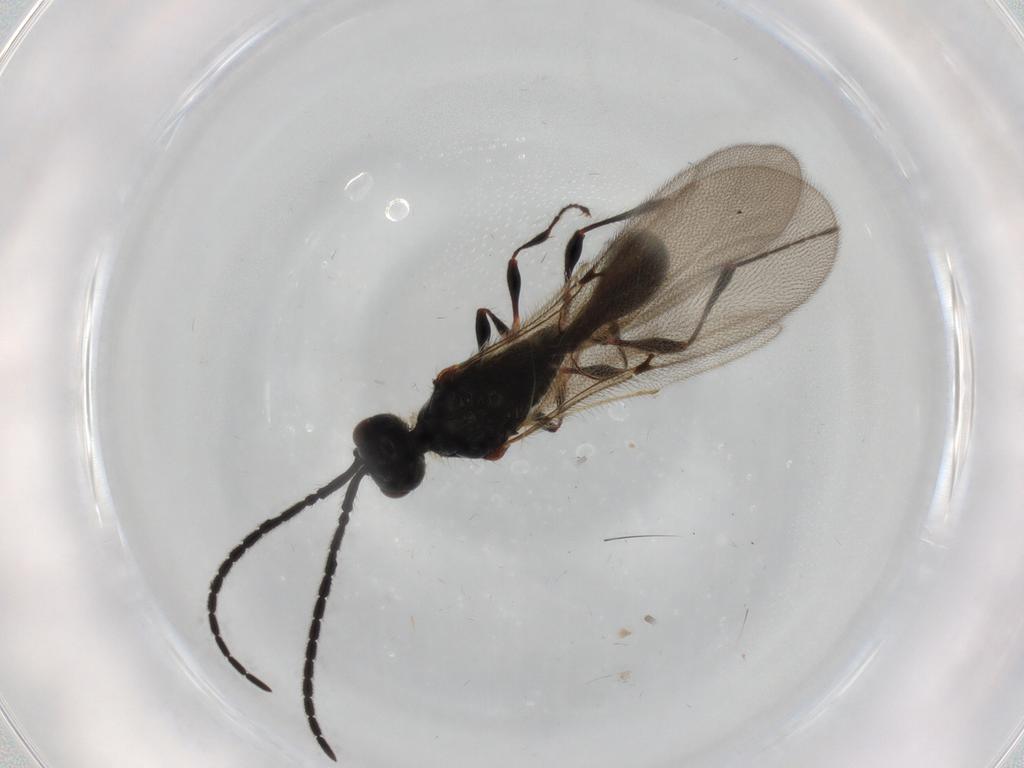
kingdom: Animalia
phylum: Arthropoda
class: Insecta
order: Hymenoptera
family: Diapriidae
